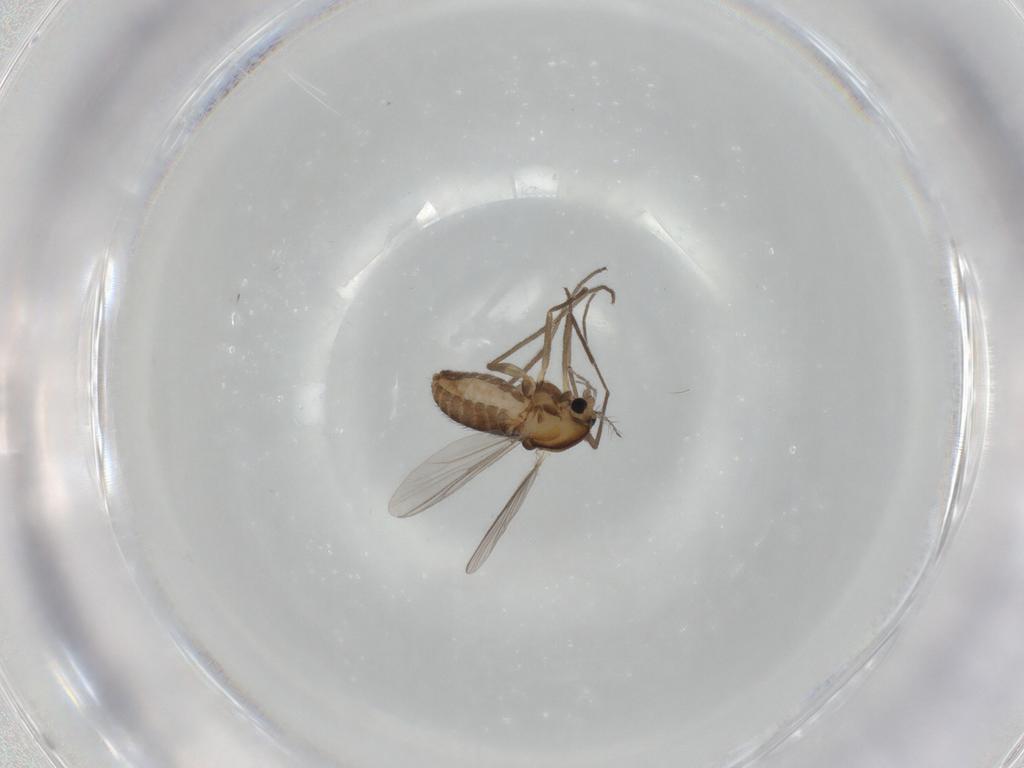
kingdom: Animalia
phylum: Arthropoda
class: Insecta
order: Diptera
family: Chironomidae
